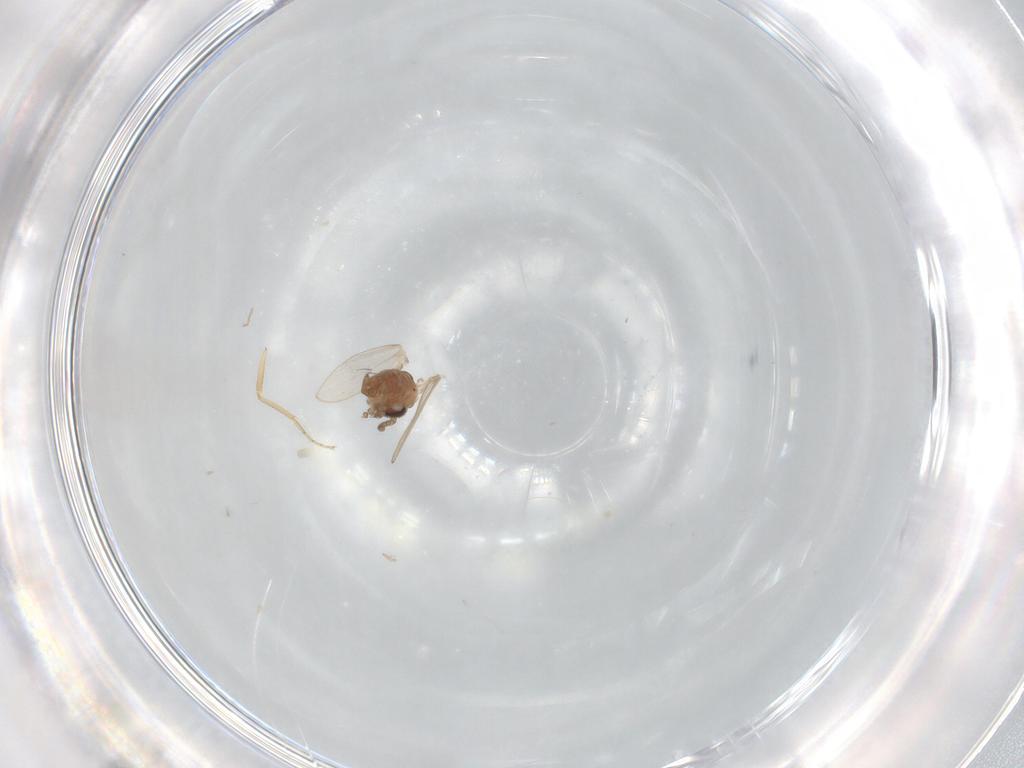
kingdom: Animalia
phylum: Arthropoda
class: Insecta
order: Diptera
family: Ceratopogonidae
